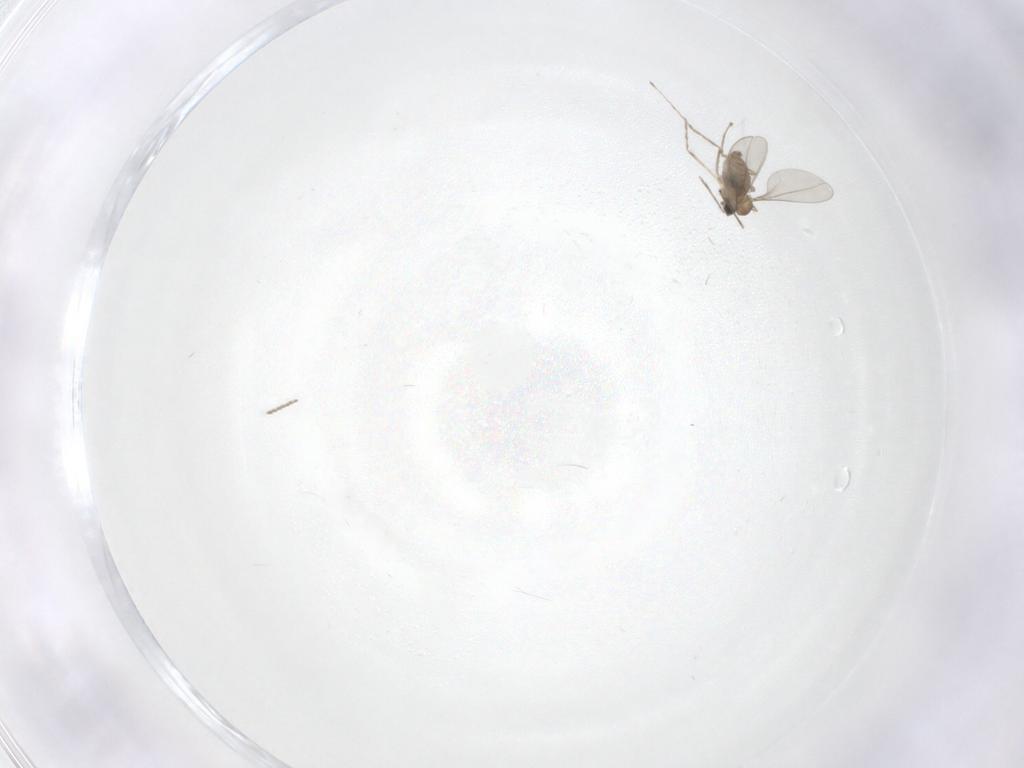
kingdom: Animalia
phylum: Arthropoda
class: Insecta
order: Diptera
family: Cecidomyiidae
